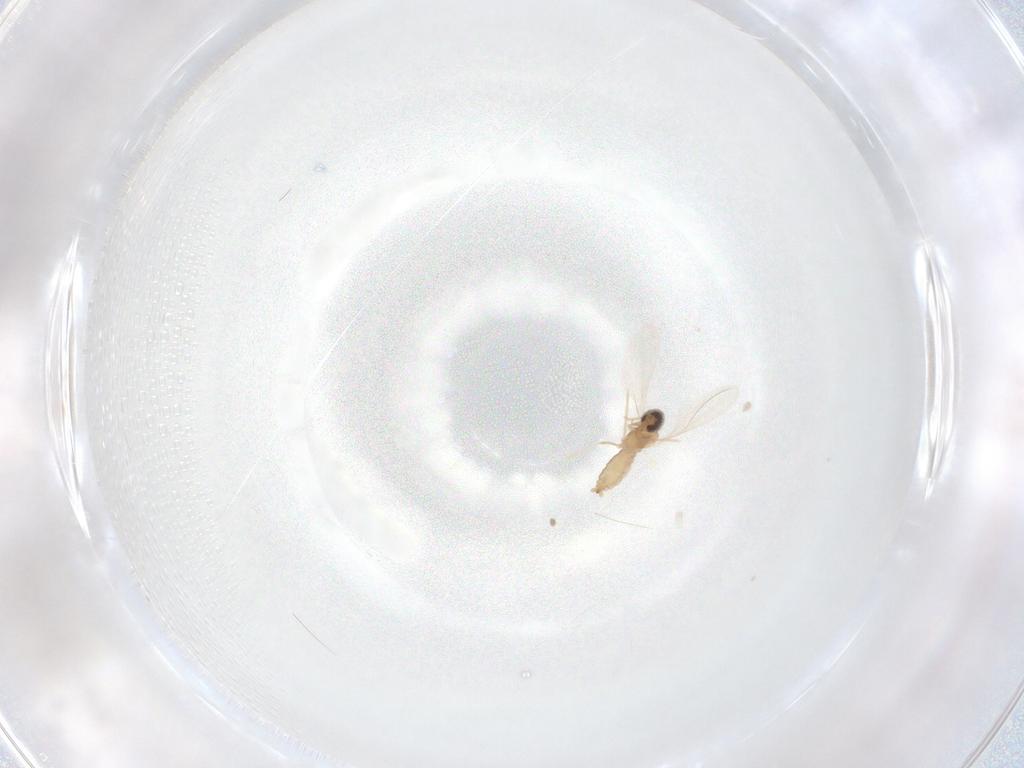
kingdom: Animalia
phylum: Arthropoda
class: Insecta
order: Diptera
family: Cecidomyiidae
